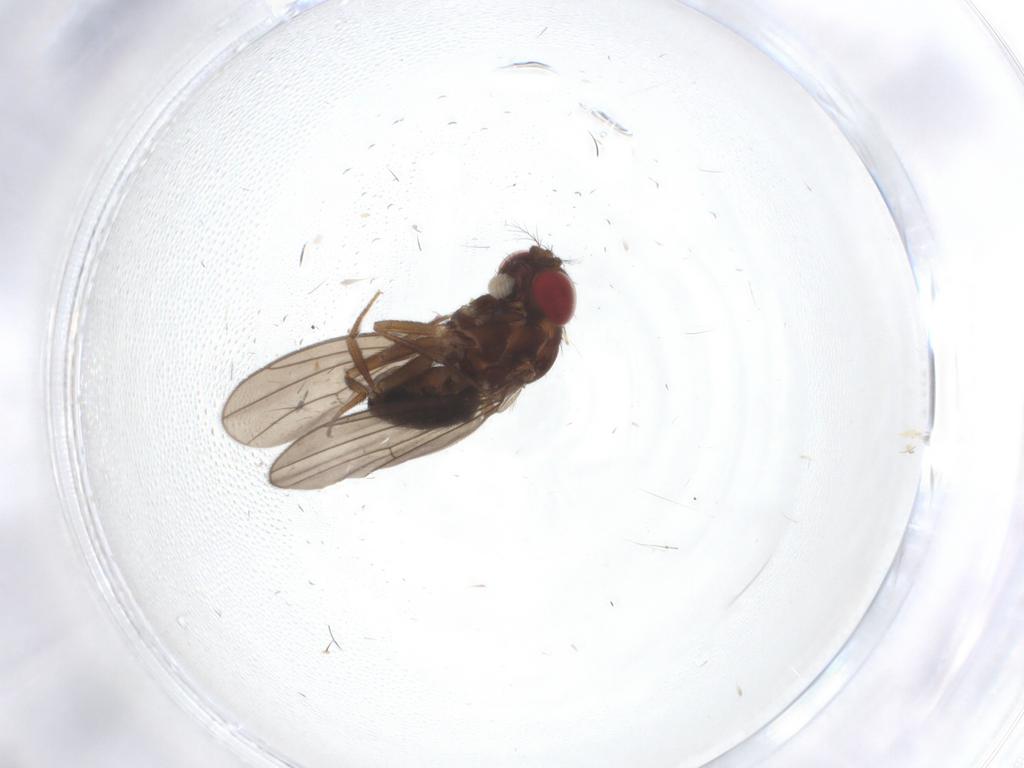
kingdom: Animalia
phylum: Arthropoda
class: Insecta
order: Diptera
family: Drosophilidae
